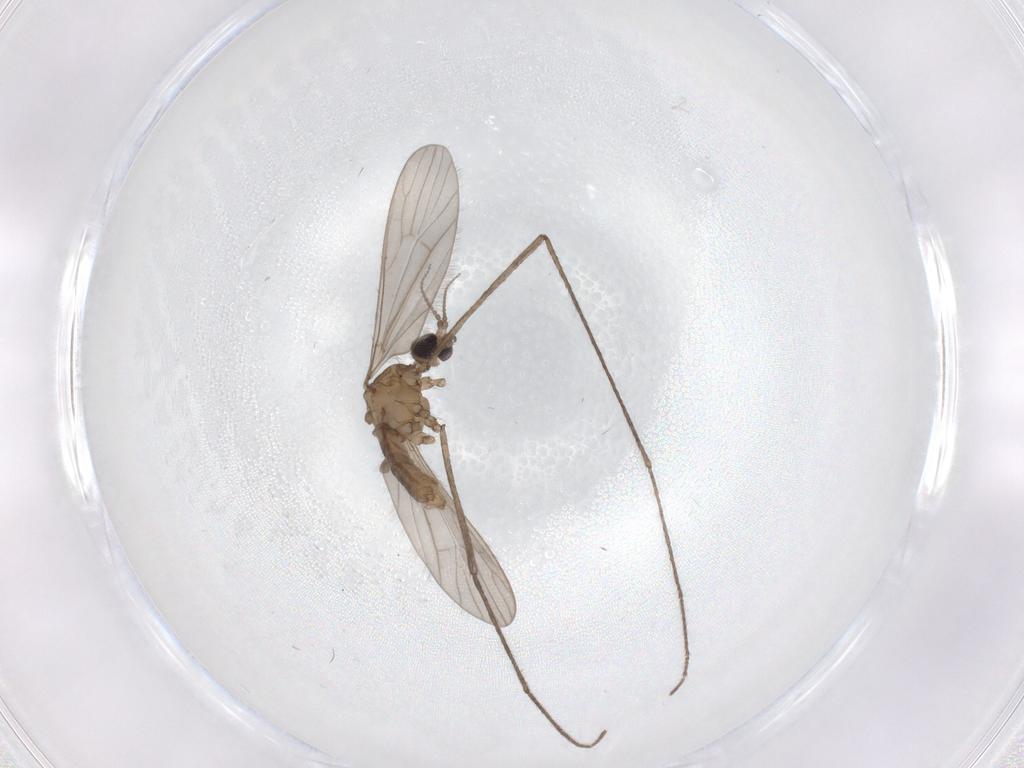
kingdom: Animalia
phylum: Arthropoda
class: Insecta
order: Diptera
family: Limoniidae
